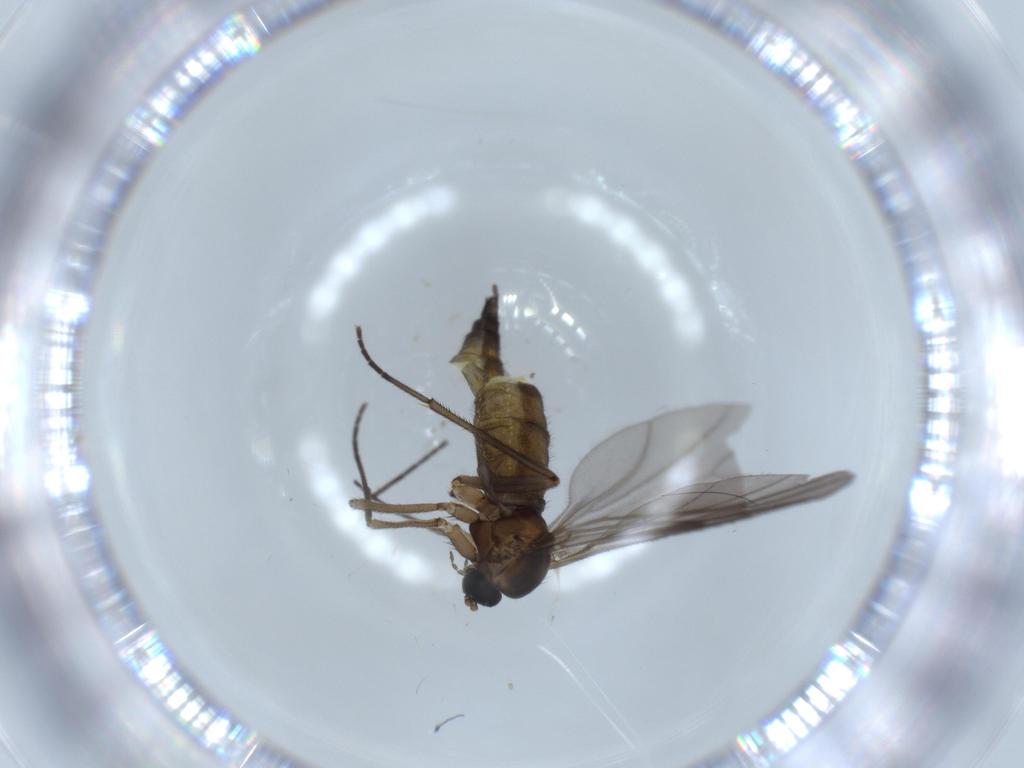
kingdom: Animalia
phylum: Arthropoda
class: Insecta
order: Diptera
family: Sciaridae
